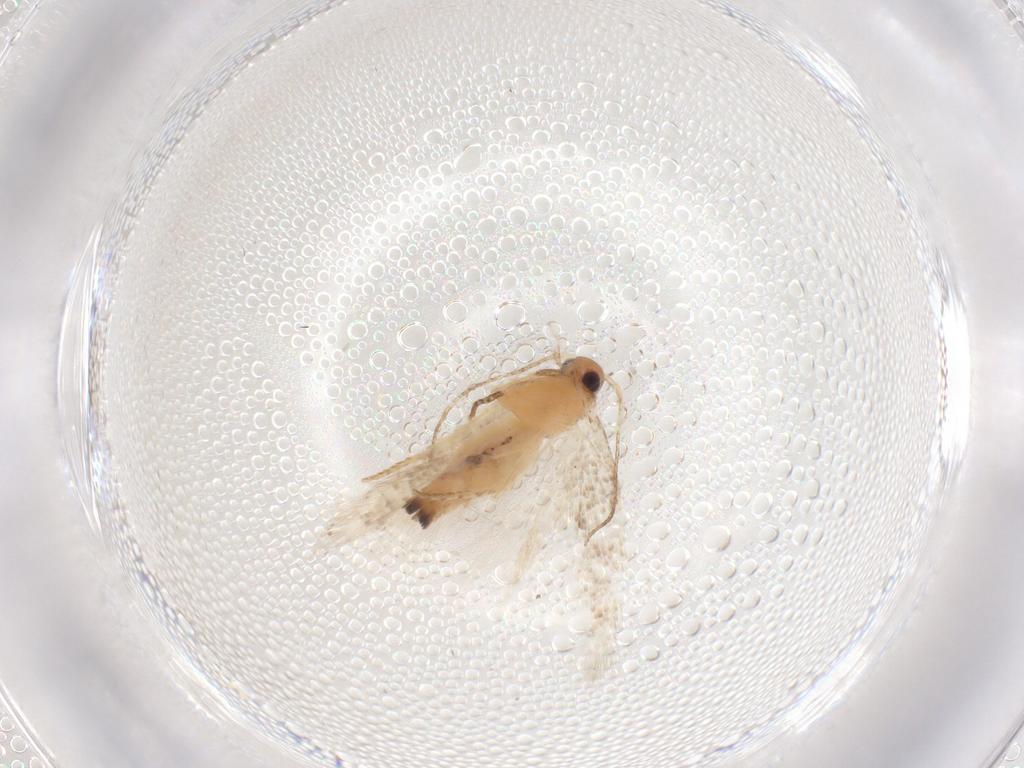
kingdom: Animalia
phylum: Arthropoda
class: Insecta
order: Lepidoptera
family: Gelechiidae
